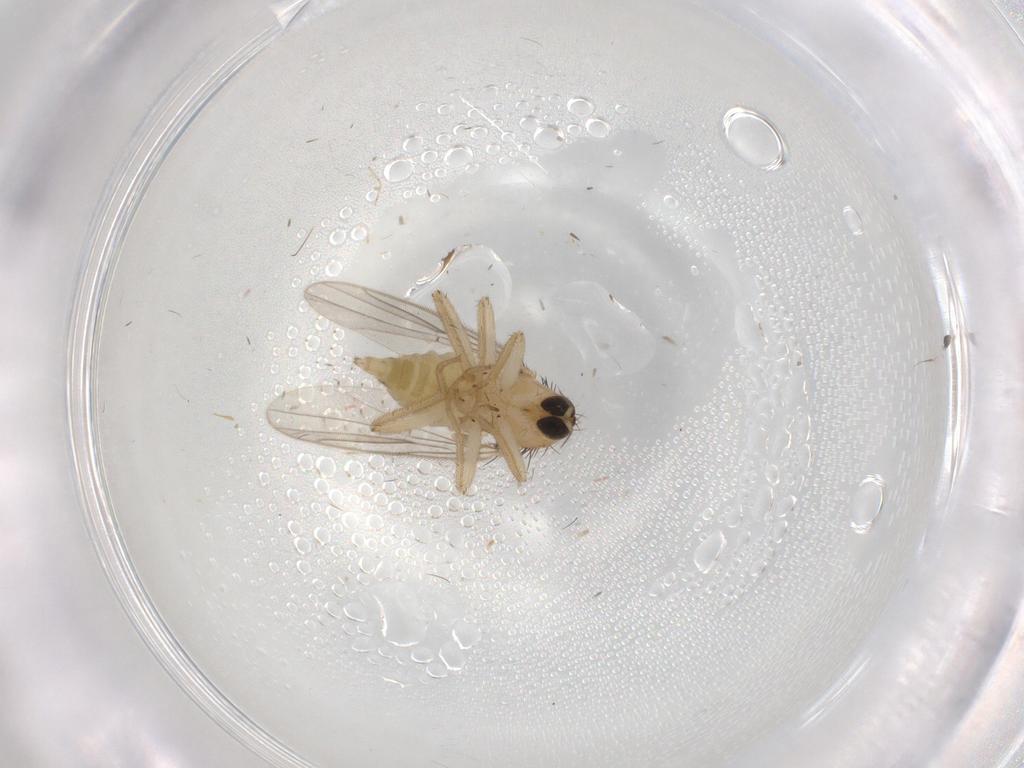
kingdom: Animalia
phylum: Arthropoda
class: Insecta
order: Diptera
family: Hybotidae
